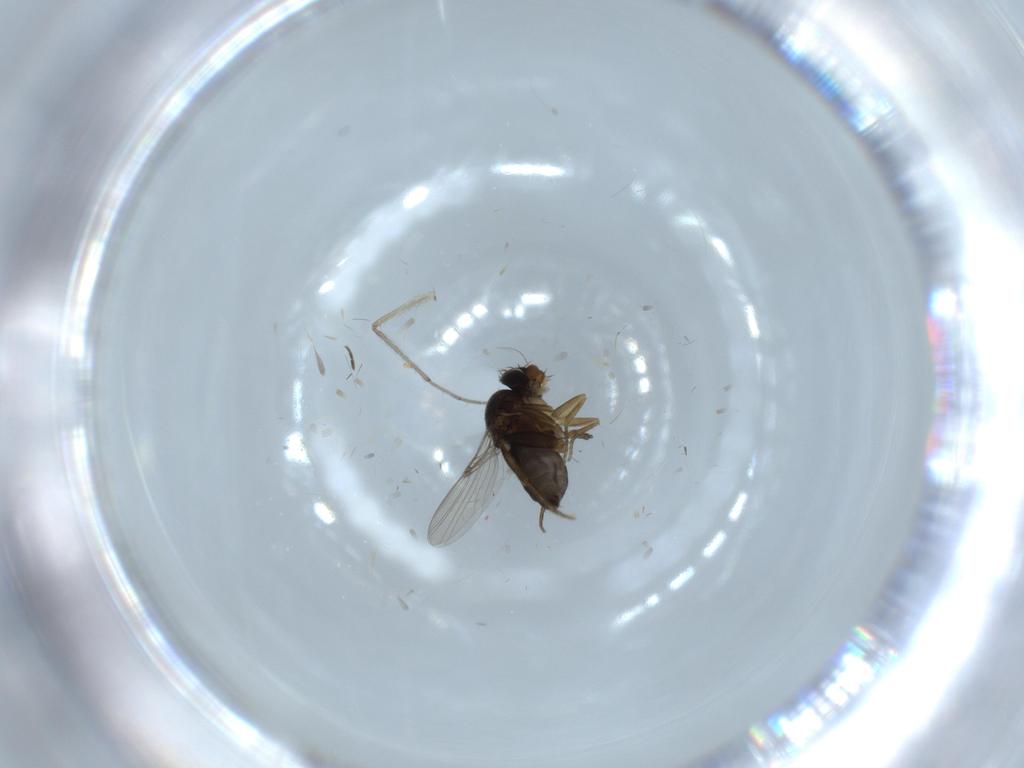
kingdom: Animalia
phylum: Arthropoda
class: Insecta
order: Diptera
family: Phoridae
